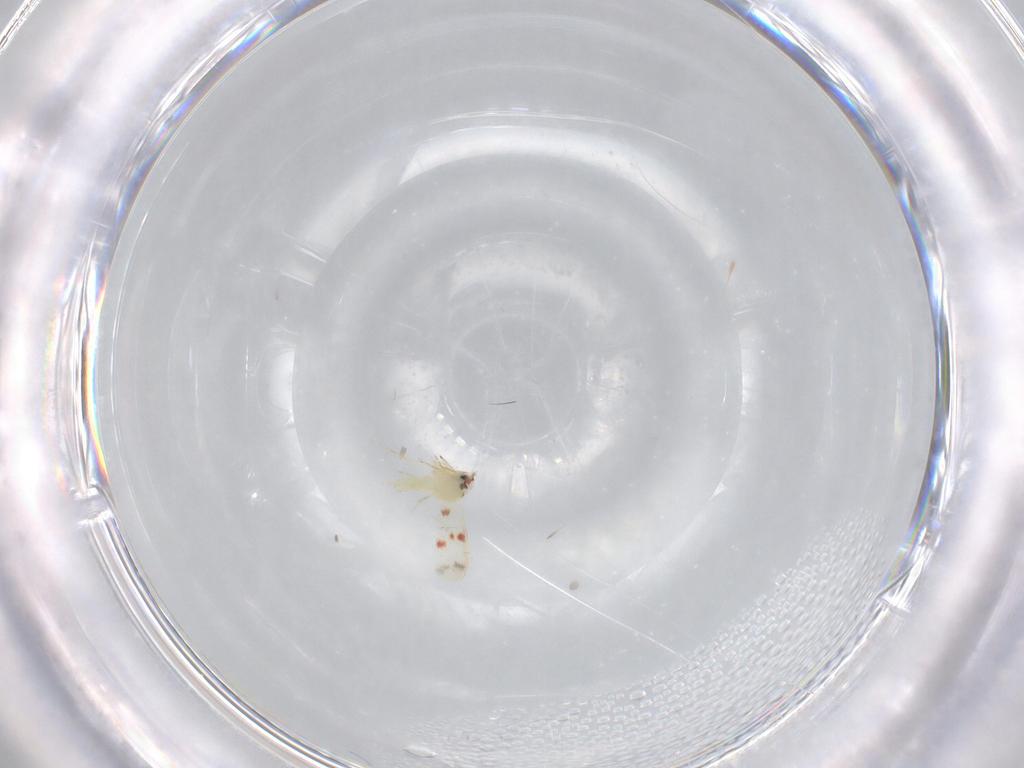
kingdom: Animalia
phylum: Arthropoda
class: Insecta
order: Hemiptera
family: Aleyrodidae
